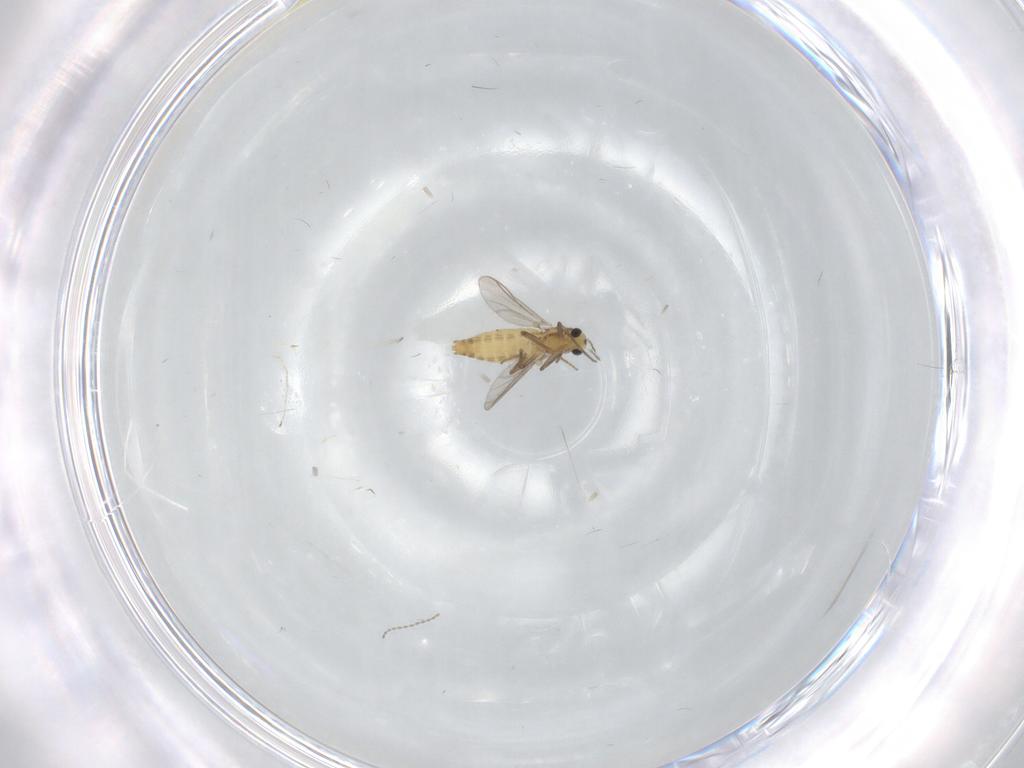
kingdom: Animalia
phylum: Arthropoda
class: Insecta
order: Diptera
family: Chironomidae
